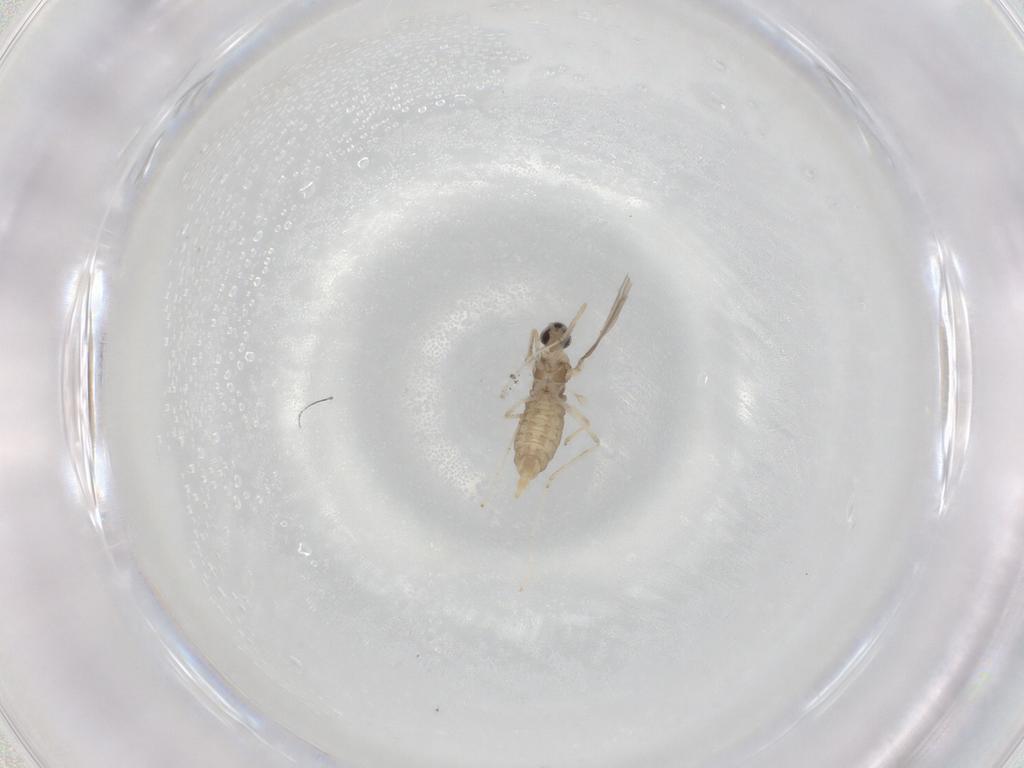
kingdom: Animalia
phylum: Arthropoda
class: Insecta
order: Diptera
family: Cecidomyiidae
